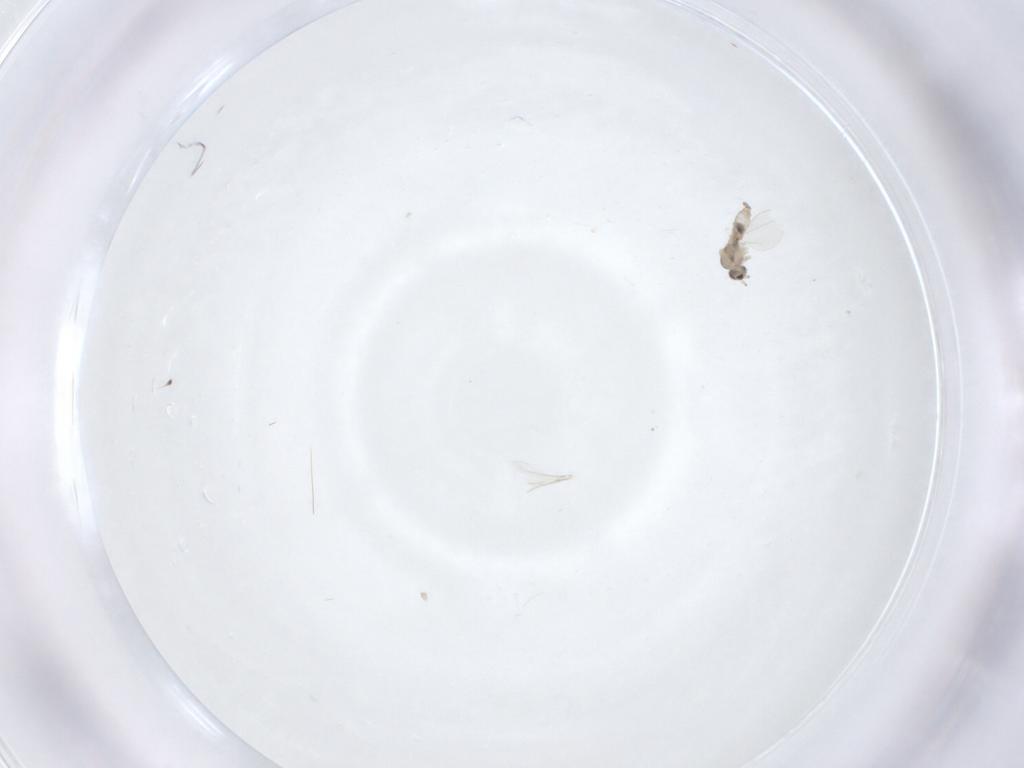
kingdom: Animalia
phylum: Arthropoda
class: Insecta
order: Diptera
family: Cecidomyiidae
